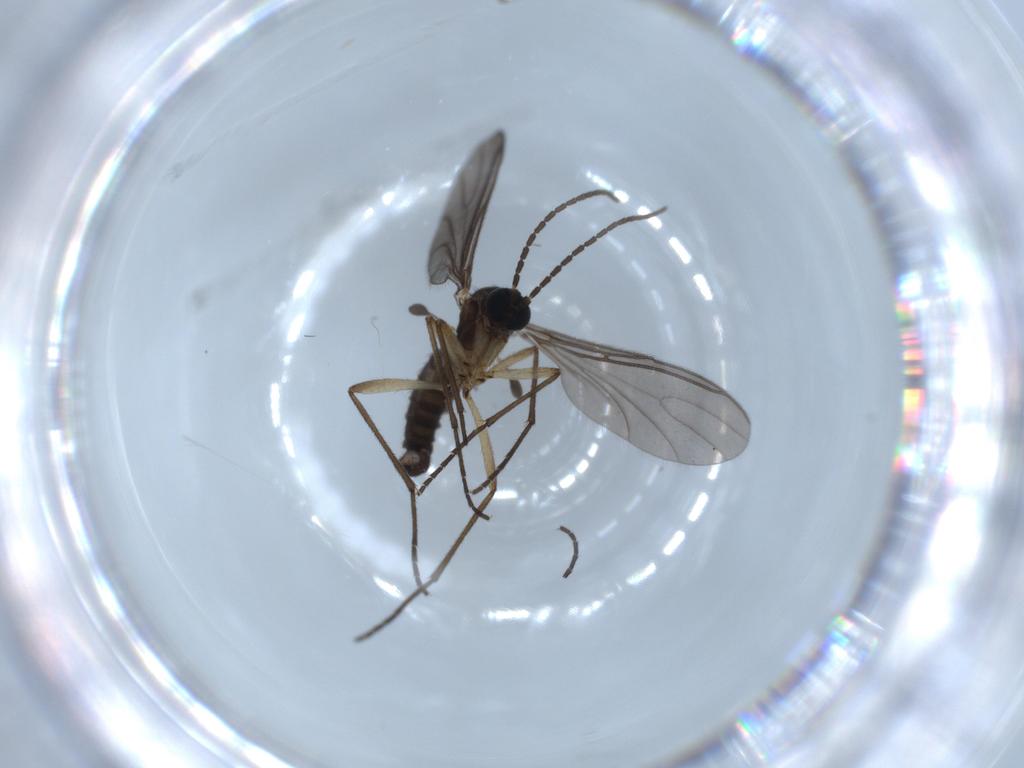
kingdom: Animalia
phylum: Arthropoda
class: Insecta
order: Diptera
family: Sciaridae
